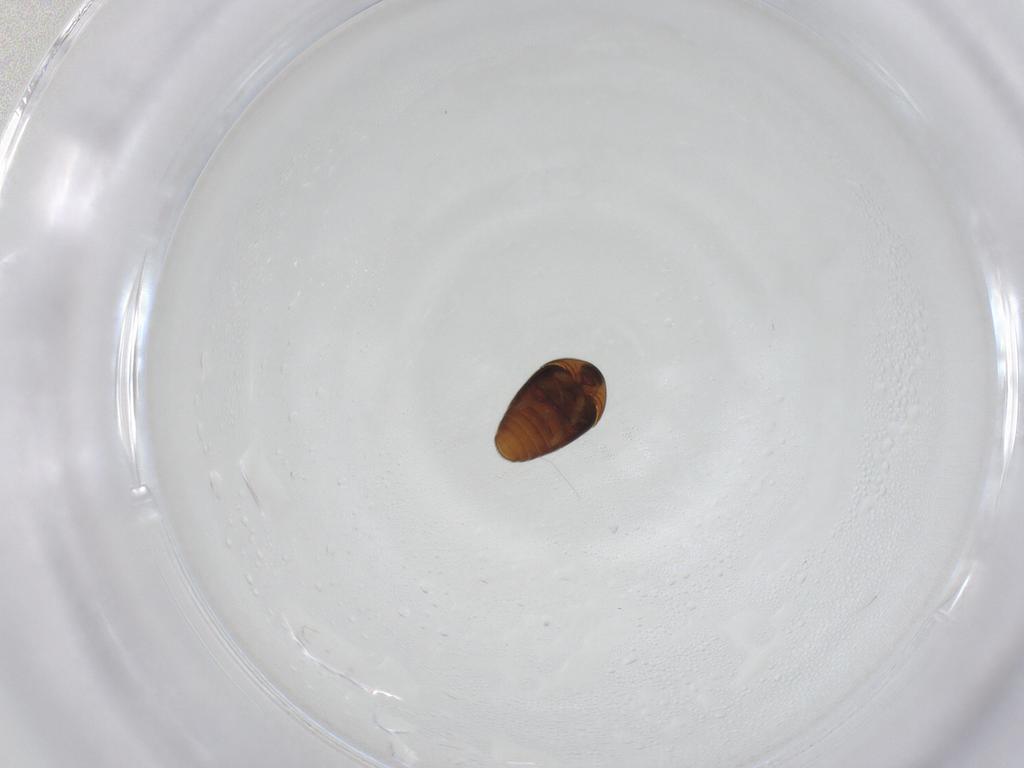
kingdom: Animalia
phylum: Arthropoda
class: Insecta
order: Coleoptera
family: Corylophidae
